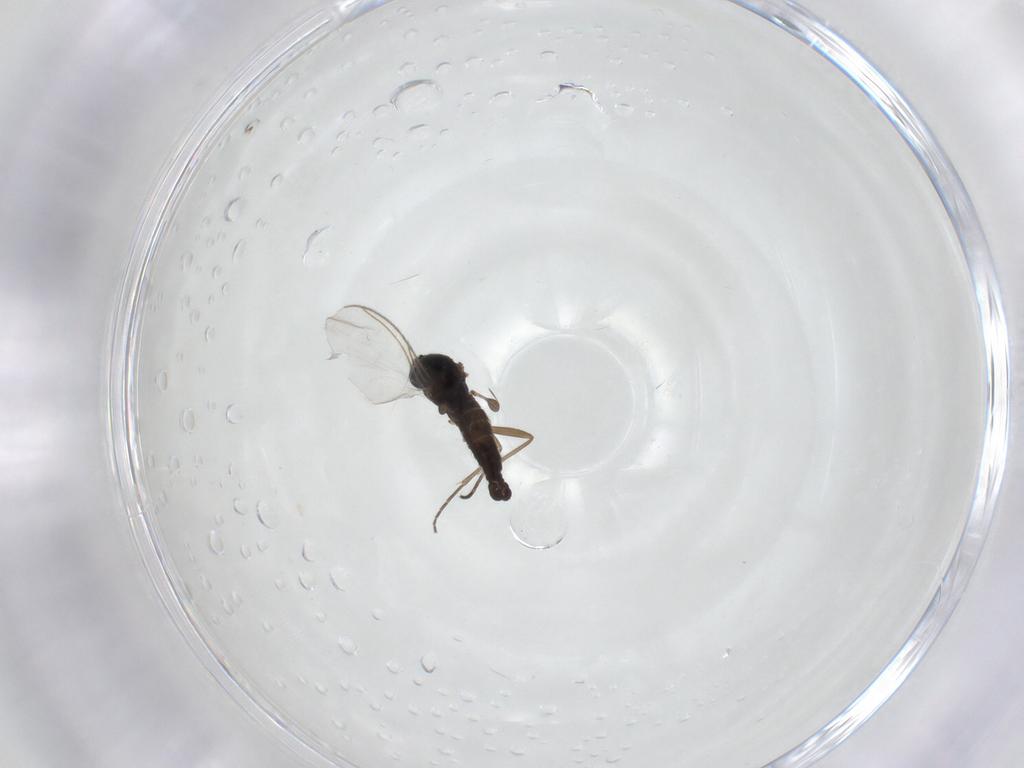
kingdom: Animalia
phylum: Arthropoda
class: Insecta
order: Diptera
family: Sciaridae
